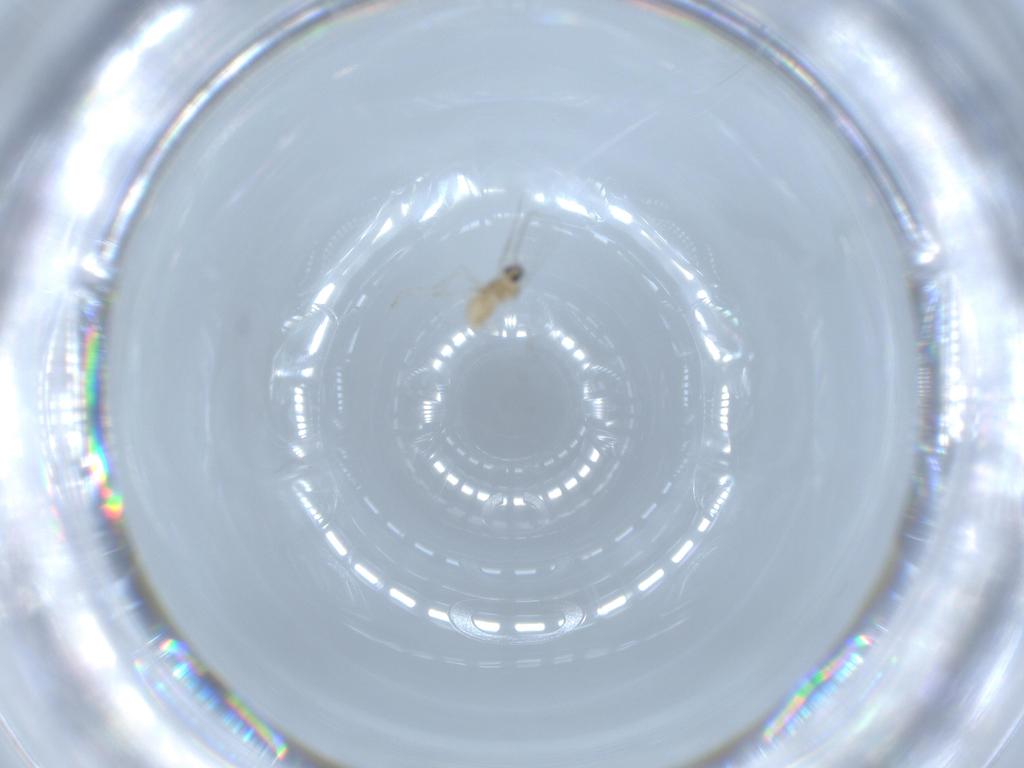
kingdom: Animalia
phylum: Arthropoda
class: Insecta
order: Diptera
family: Cecidomyiidae
